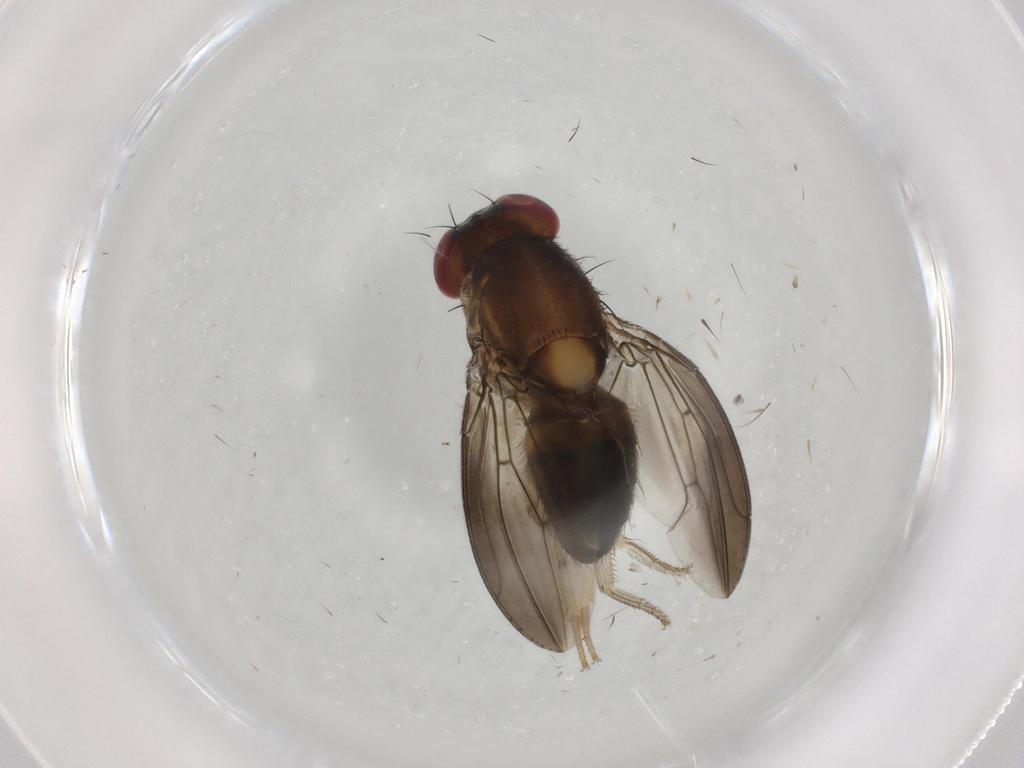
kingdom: Animalia
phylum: Arthropoda
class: Insecta
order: Diptera
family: Drosophilidae
